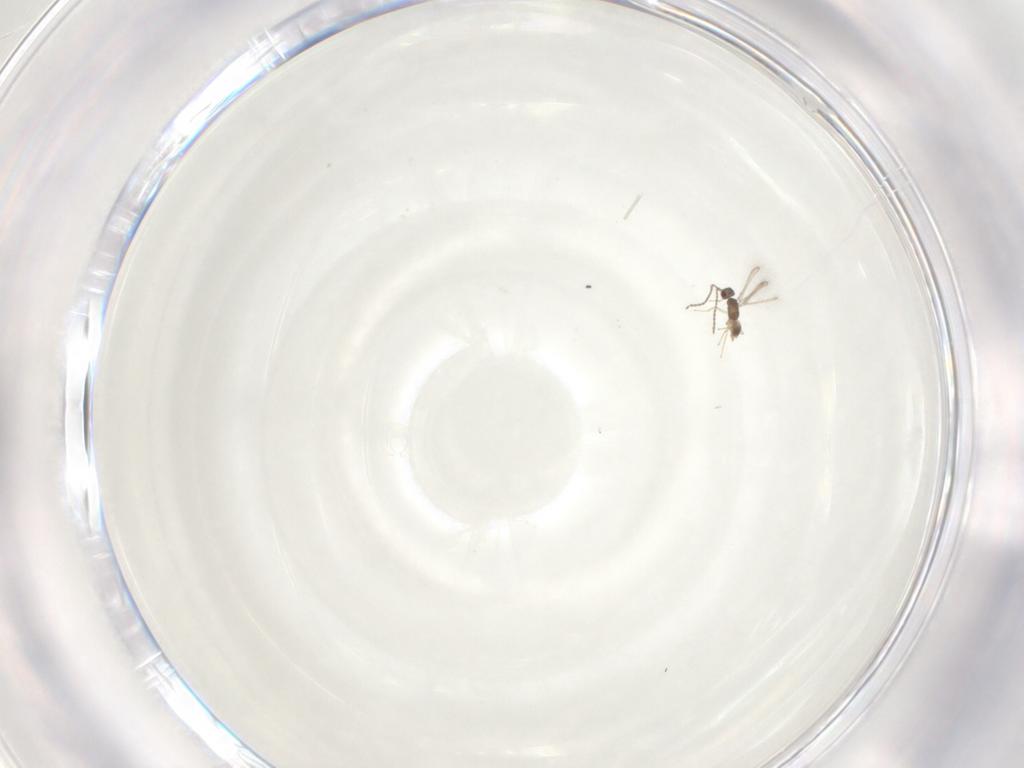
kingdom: Animalia
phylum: Arthropoda
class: Insecta
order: Hymenoptera
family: Ichneumonidae
